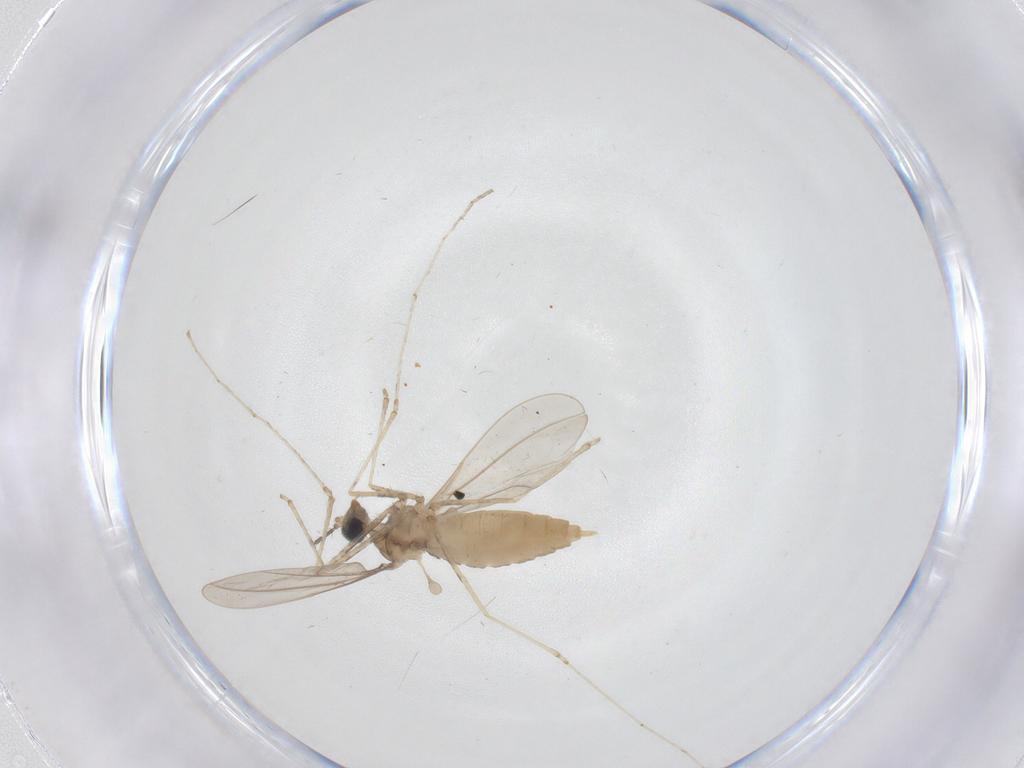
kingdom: Animalia
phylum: Arthropoda
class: Insecta
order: Diptera
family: Cecidomyiidae
